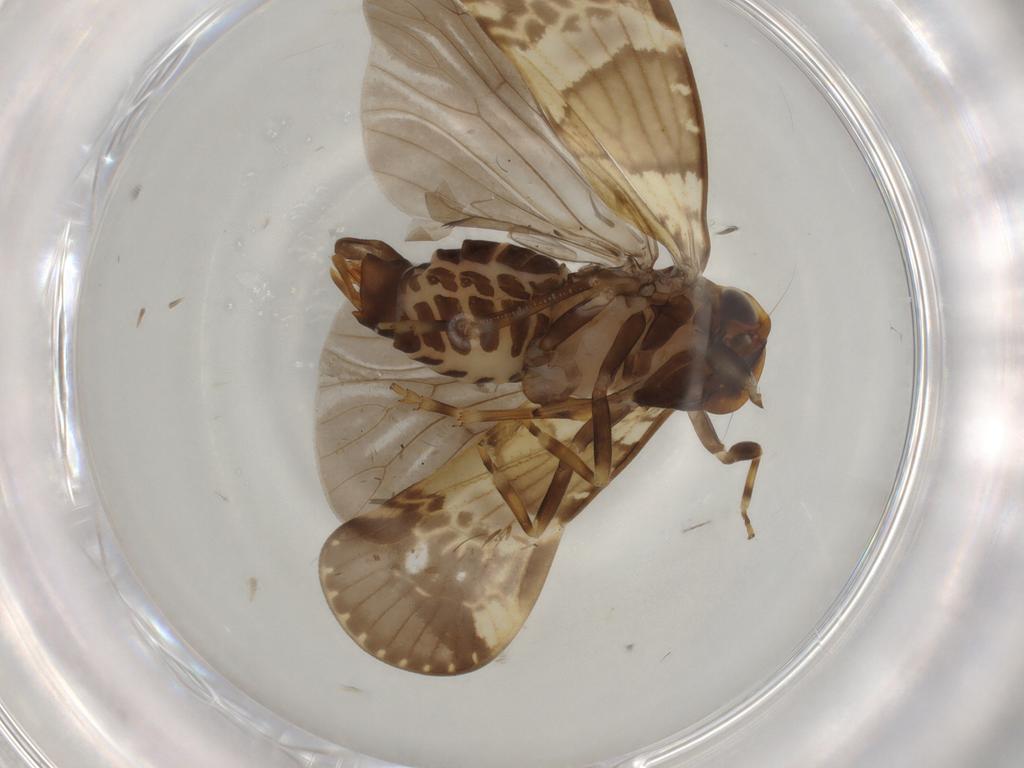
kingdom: Animalia
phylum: Arthropoda
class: Insecta
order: Hemiptera
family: Cixiidae
